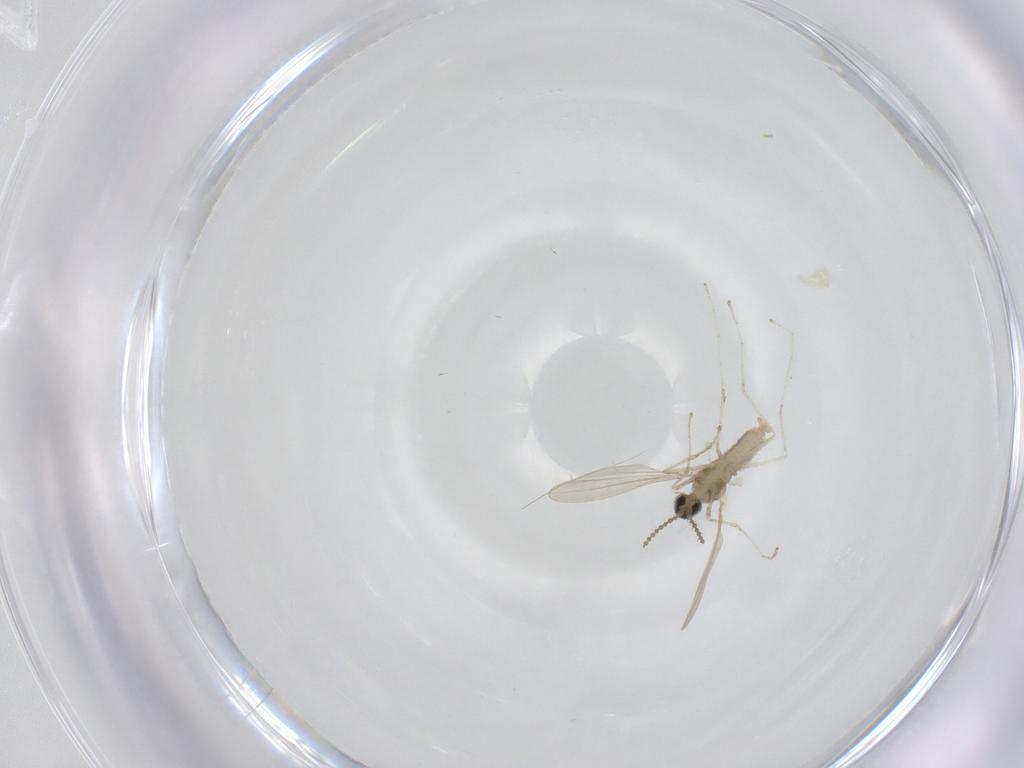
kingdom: Animalia
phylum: Arthropoda
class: Insecta
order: Diptera
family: Cecidomyiidae
